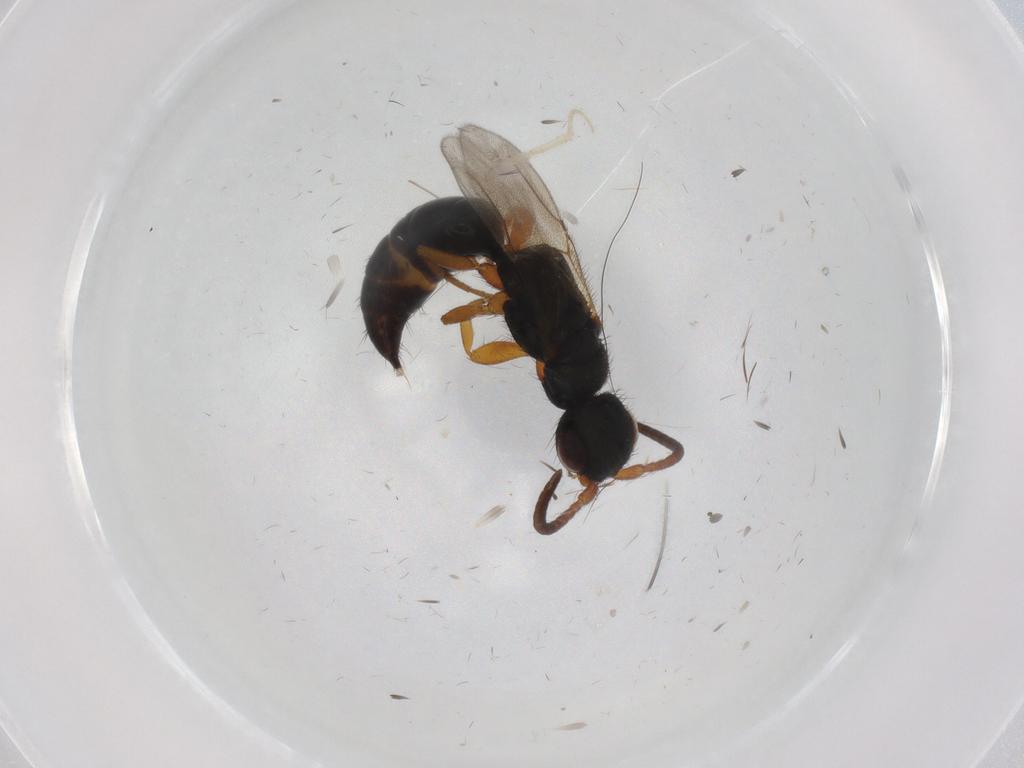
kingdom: Animalia
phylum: Arthropoda
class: Insecta
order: Hymenoptera
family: Bethylidae
